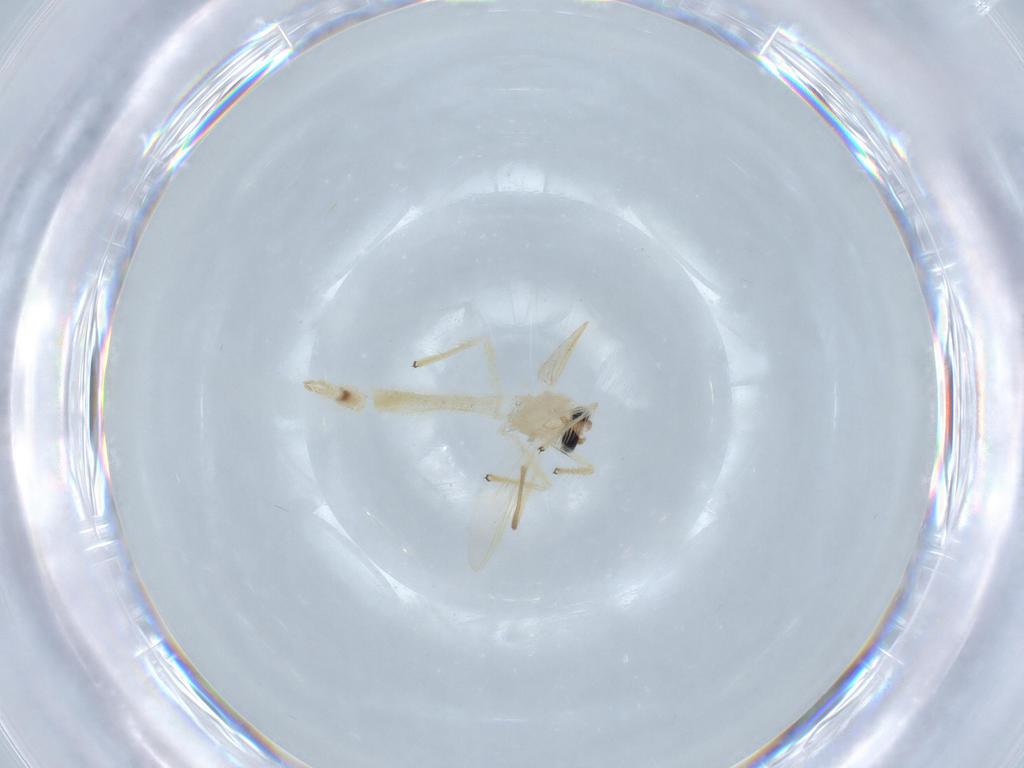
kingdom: Animalia
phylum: Arthropoda
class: Insecta
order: Diptera
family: Chironomidae
